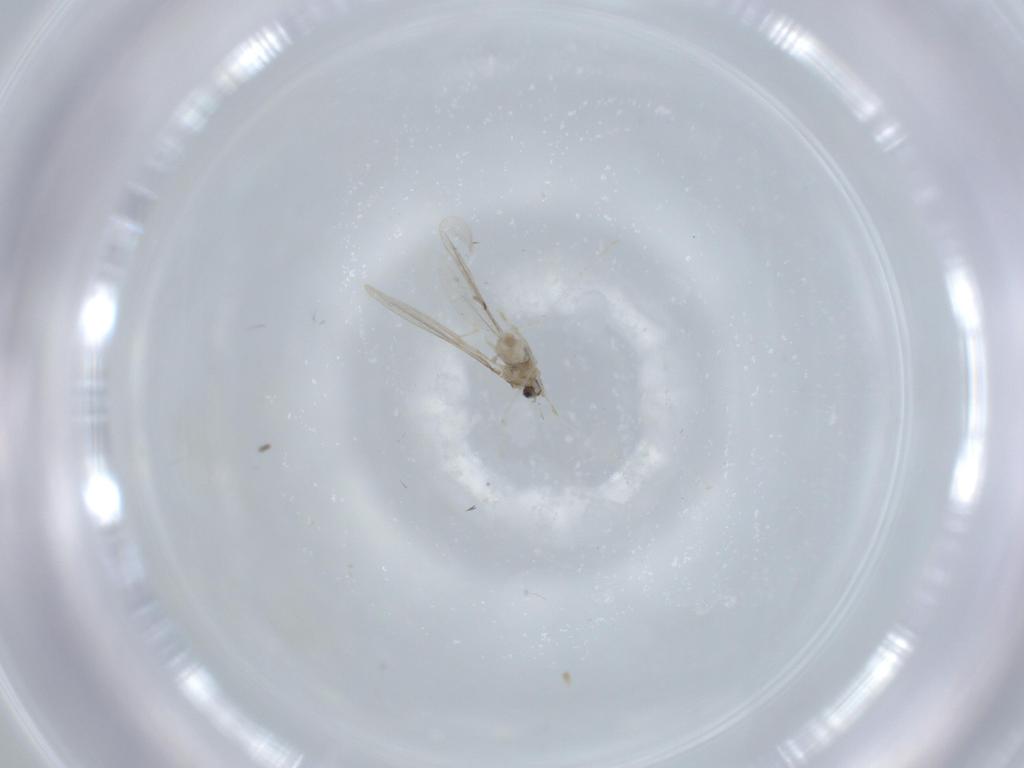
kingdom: Animalia
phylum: Arthropoda
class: Insecta
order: Diptera
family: Cecidomyiidae
